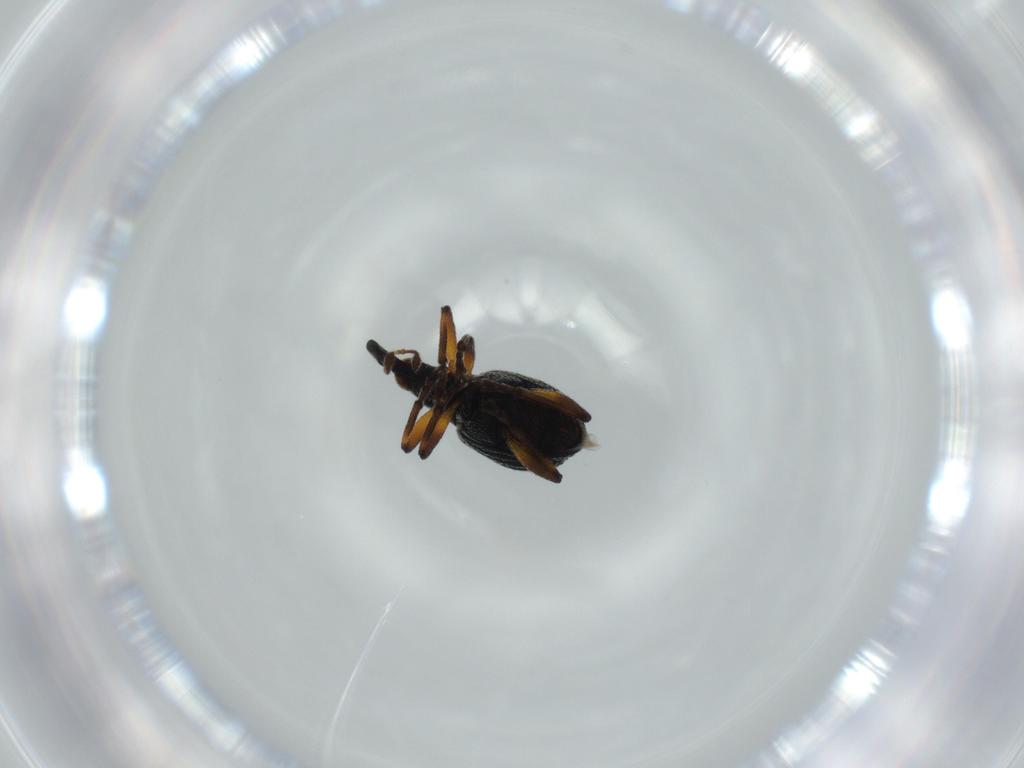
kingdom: Animalia
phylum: Arthropoda
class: Insecta
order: Coleoptera
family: Brentidae
